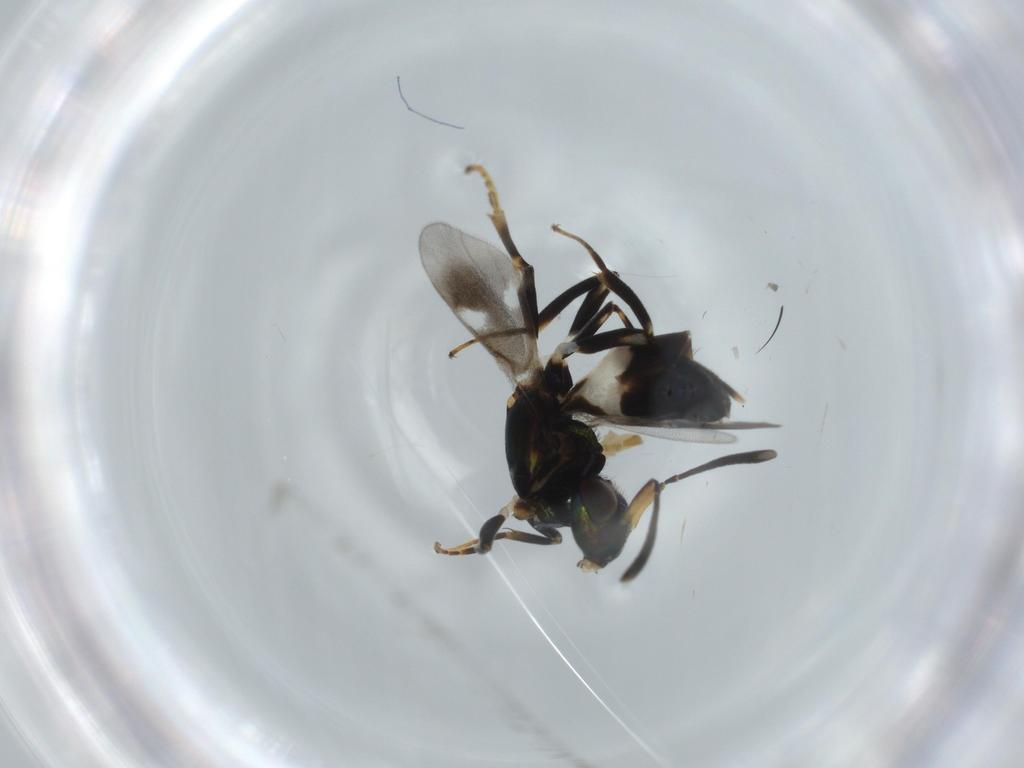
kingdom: Animalia
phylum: Arthropoda
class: Insecta
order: Hymenoptera
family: Eupelmidae
